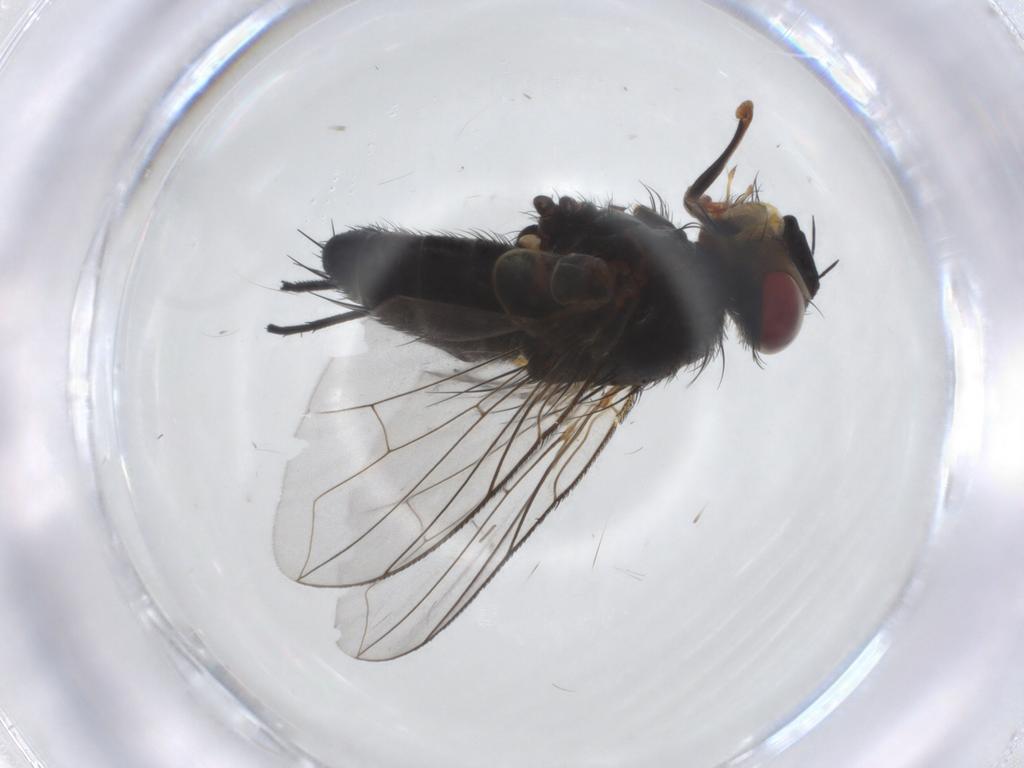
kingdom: Animalia
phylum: Arthropoda
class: Insecta
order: Diptera
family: Tachinidae
